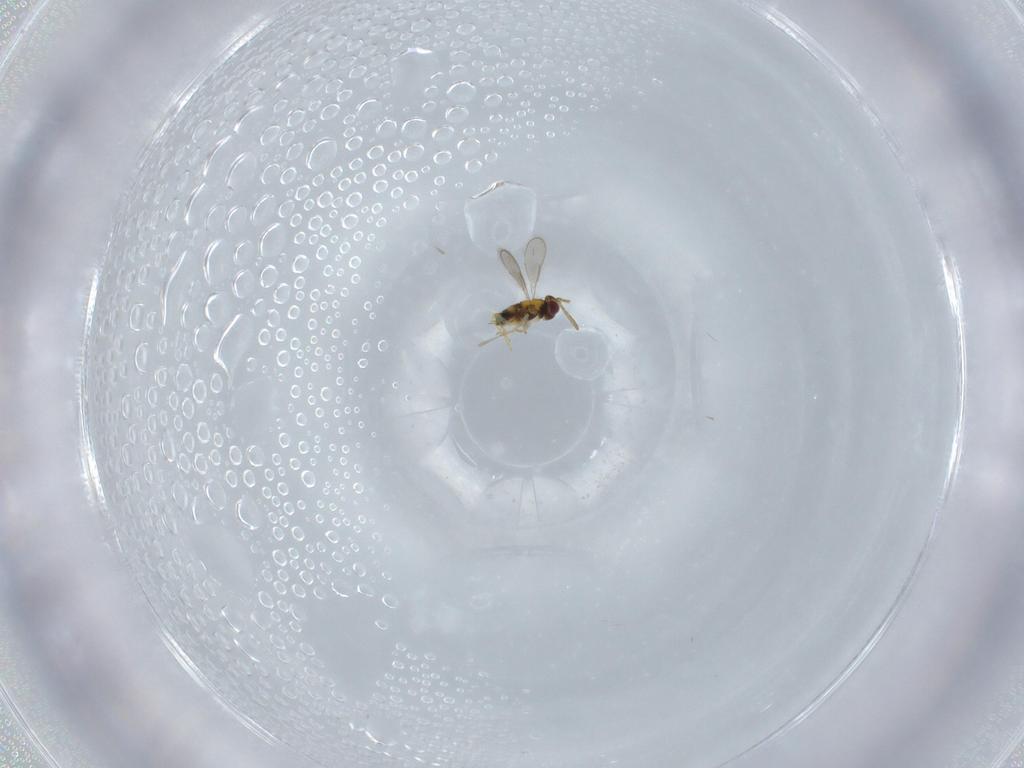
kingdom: Animalia
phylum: Arthropoda
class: Insecta
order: Hymenoptera
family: Aphelinidae
